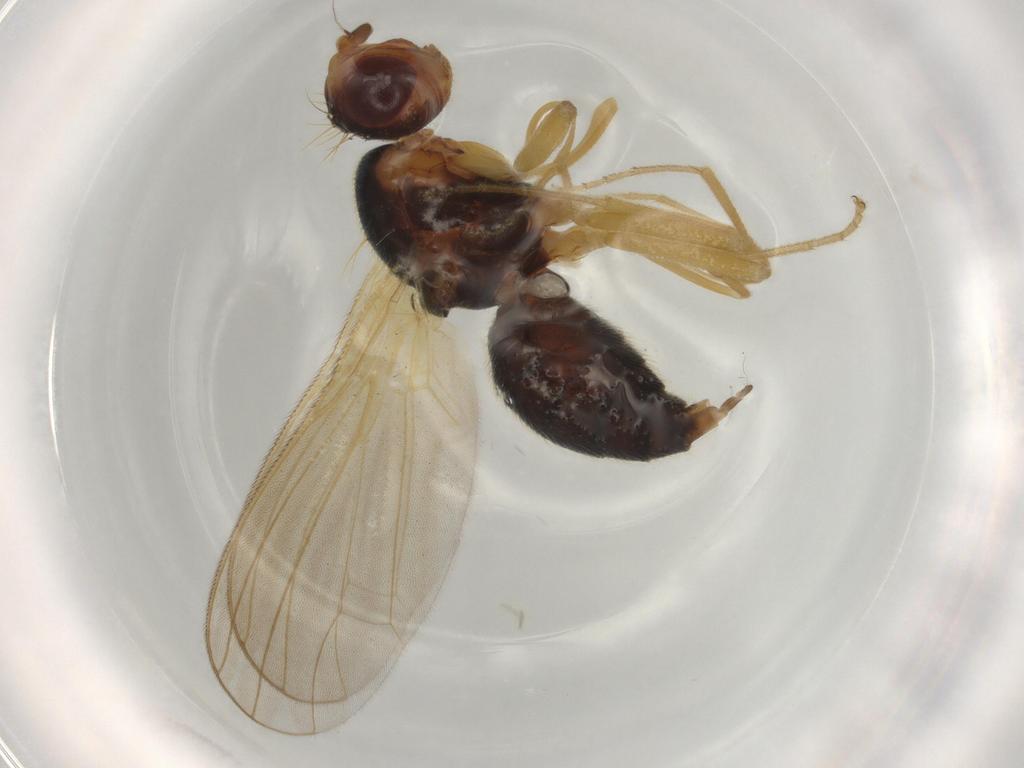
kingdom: Animalia
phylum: Arthropoda
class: Insecta
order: Diptera
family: Psilidae
